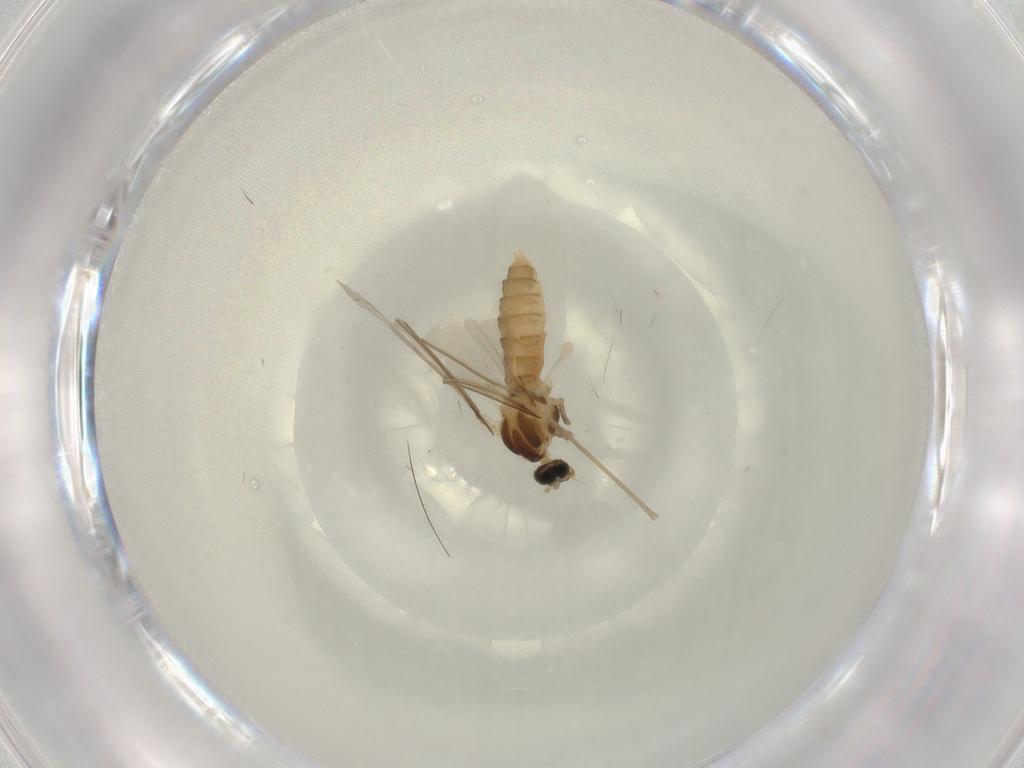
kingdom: Animalia
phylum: Arthropoda
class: Insecta
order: Diptera
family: Cecidomyiidae
